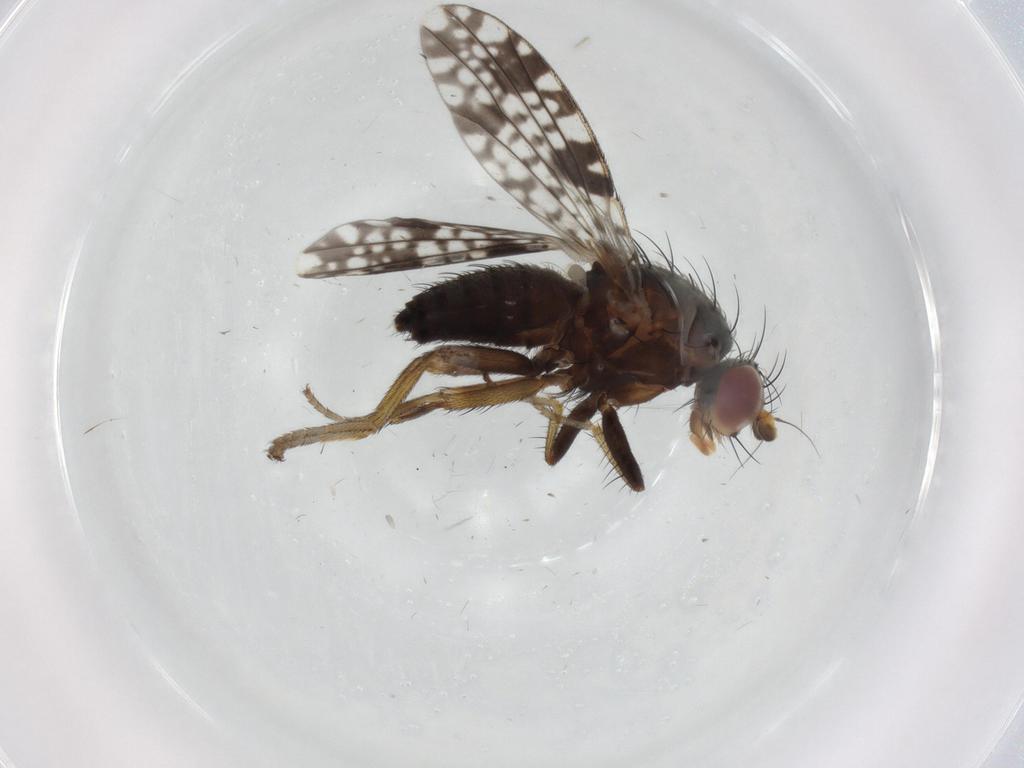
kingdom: Animalia
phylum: Arthropoda
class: Insecta
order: Diptera
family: Tephritidae
